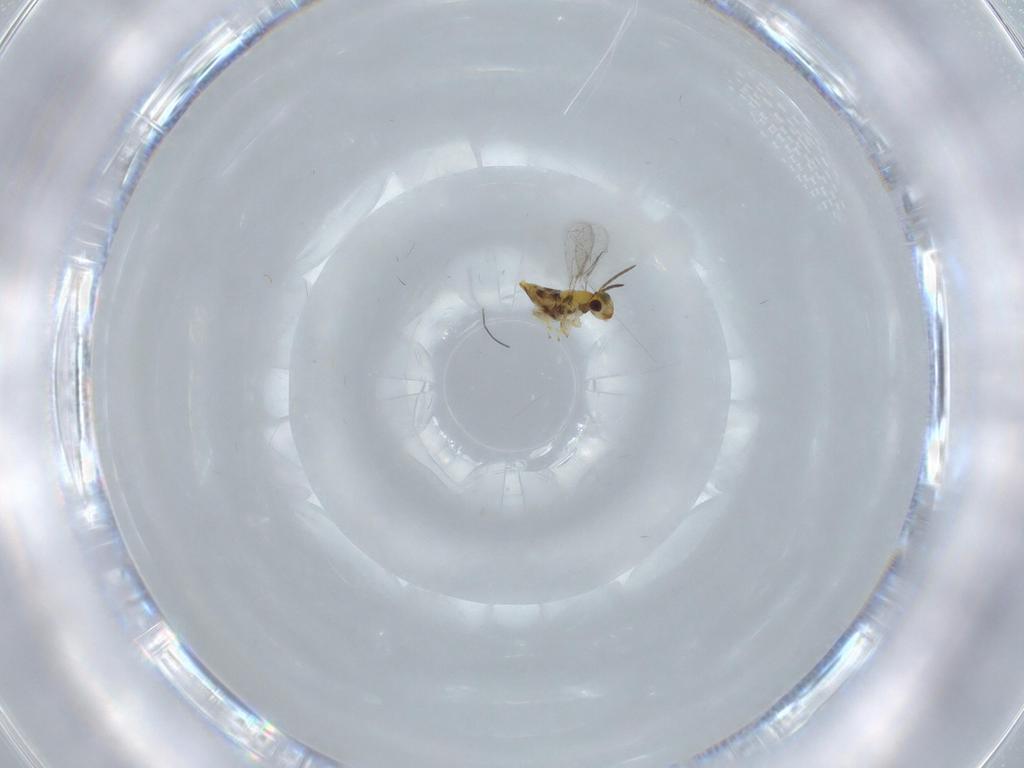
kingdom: Animalia
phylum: Arthropoda
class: Insecta
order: Hymenoptera
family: Aphelinidae
